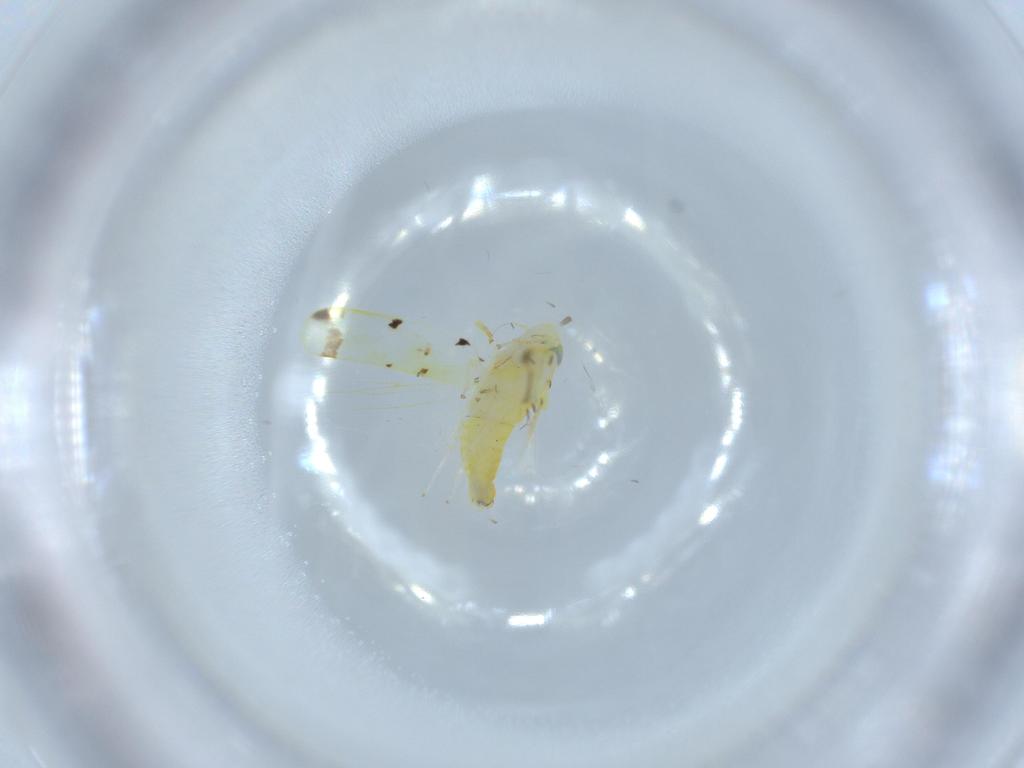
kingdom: Animalia
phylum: Arthropoda
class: Insecta
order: Hemiptera
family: Cicadellidae
